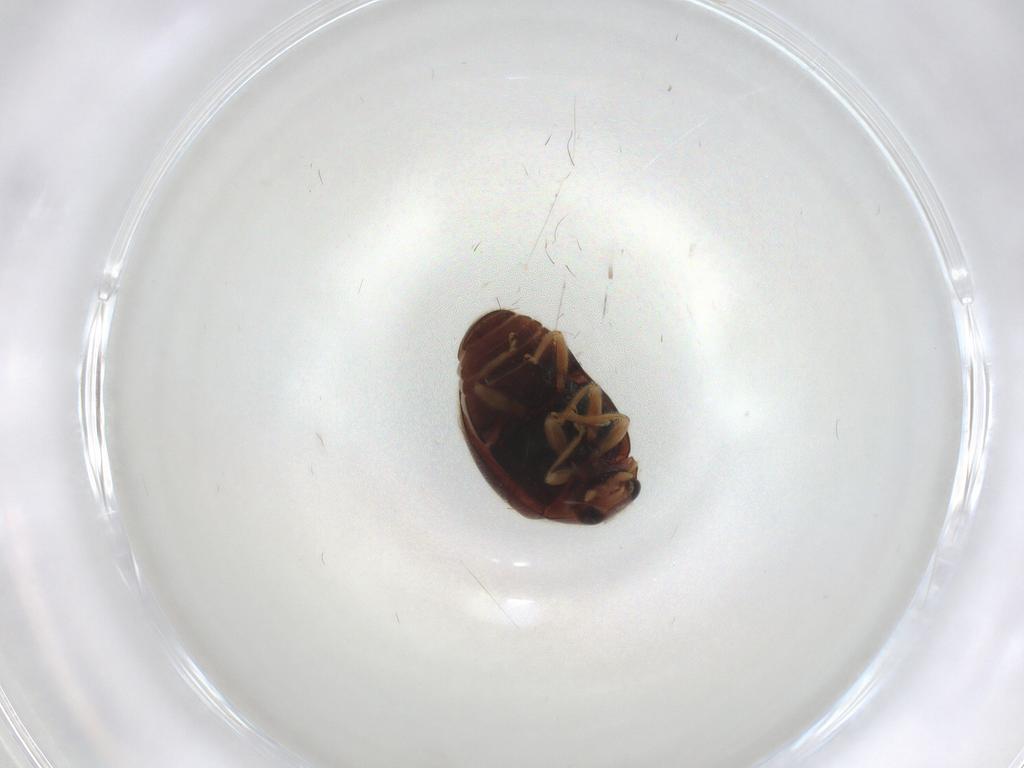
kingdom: Animalia
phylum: Arthropoda
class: Insecta
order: Coleoptera
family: Coccinellidae
